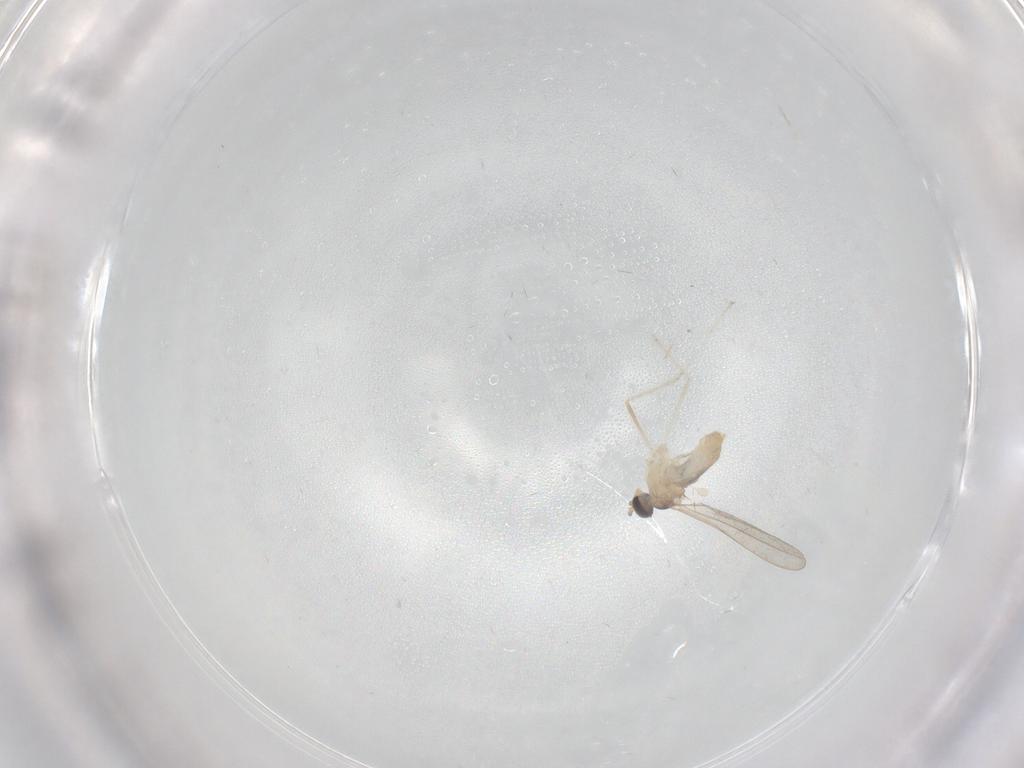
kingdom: Animalia
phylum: Arthropoda
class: Insecta
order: Diptera
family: Cecidomyiidae
